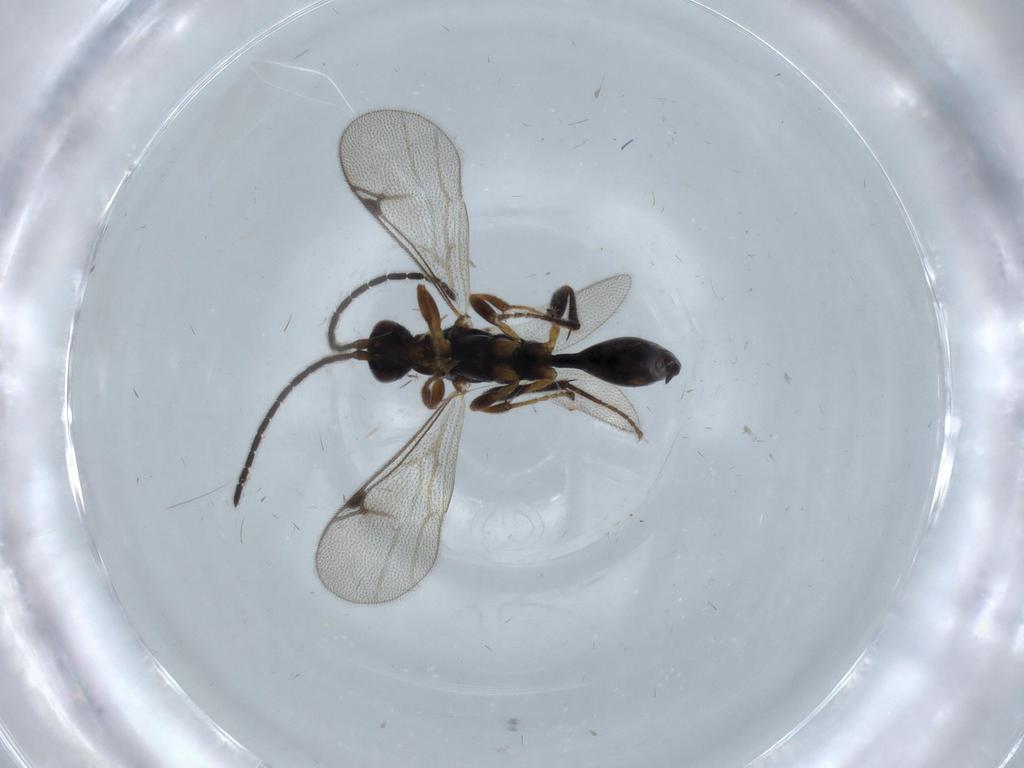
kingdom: Animalia
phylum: Arthropoda
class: Insecta
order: Hymenoptera
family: Proctotrupidae
